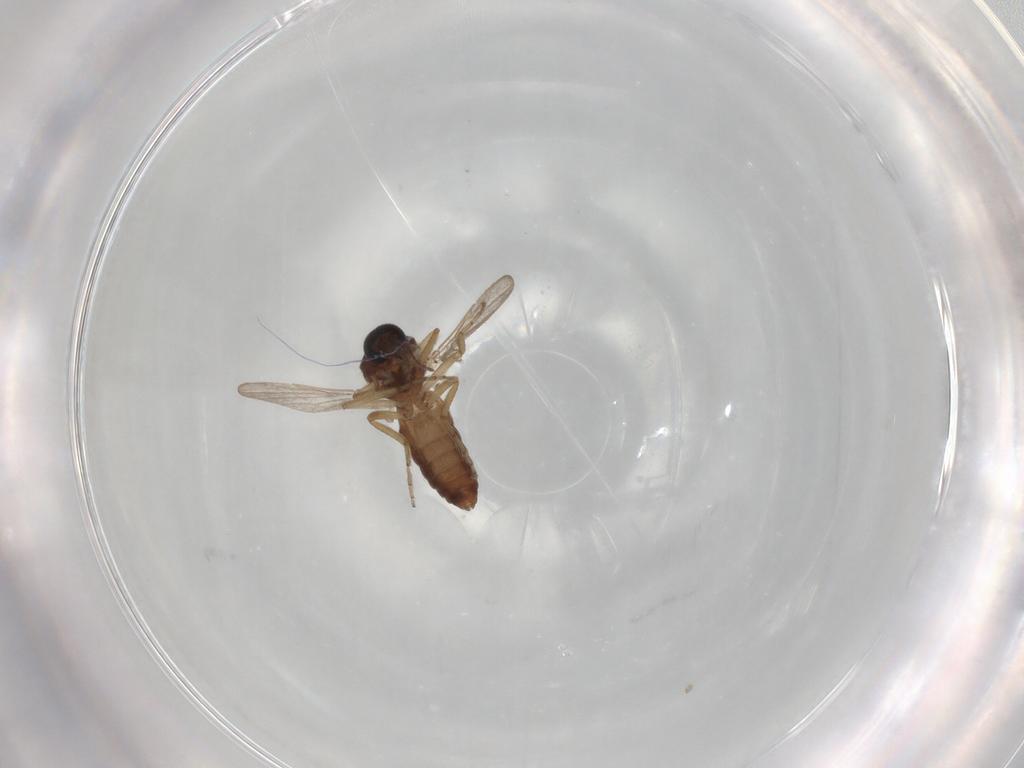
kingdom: Animalia
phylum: Arthropoda
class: Insecta
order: Diptera
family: Ceratopogonidae
